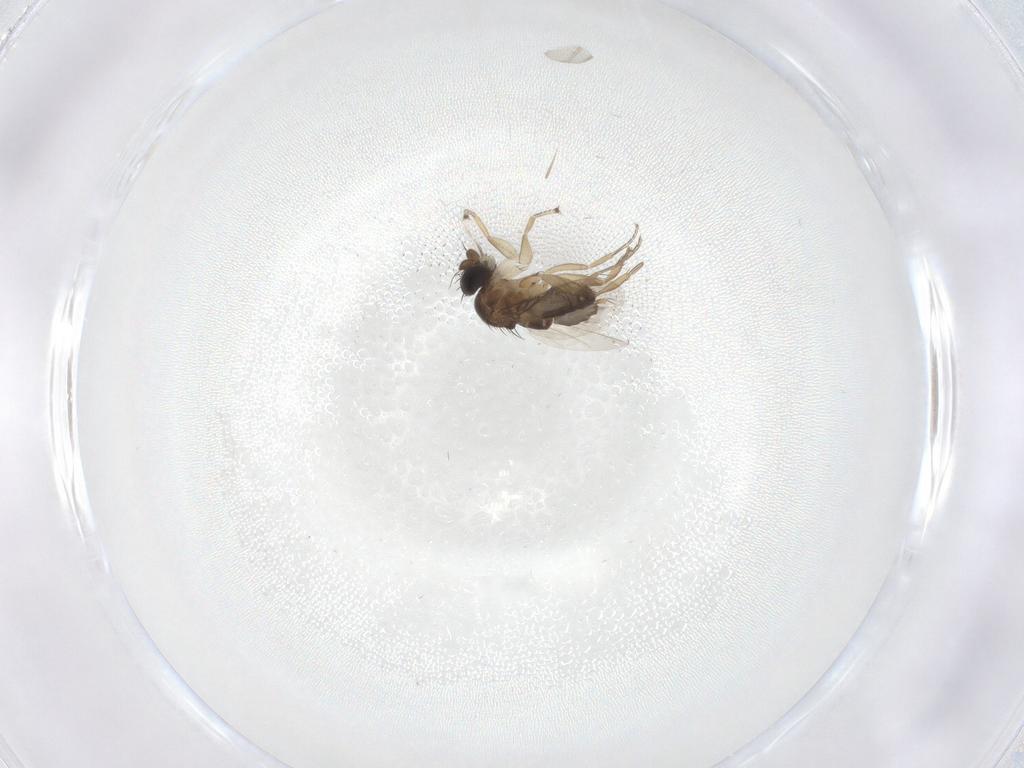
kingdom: Animalia
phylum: Arthropoda
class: Insecta
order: Diptera
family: Phoridae
